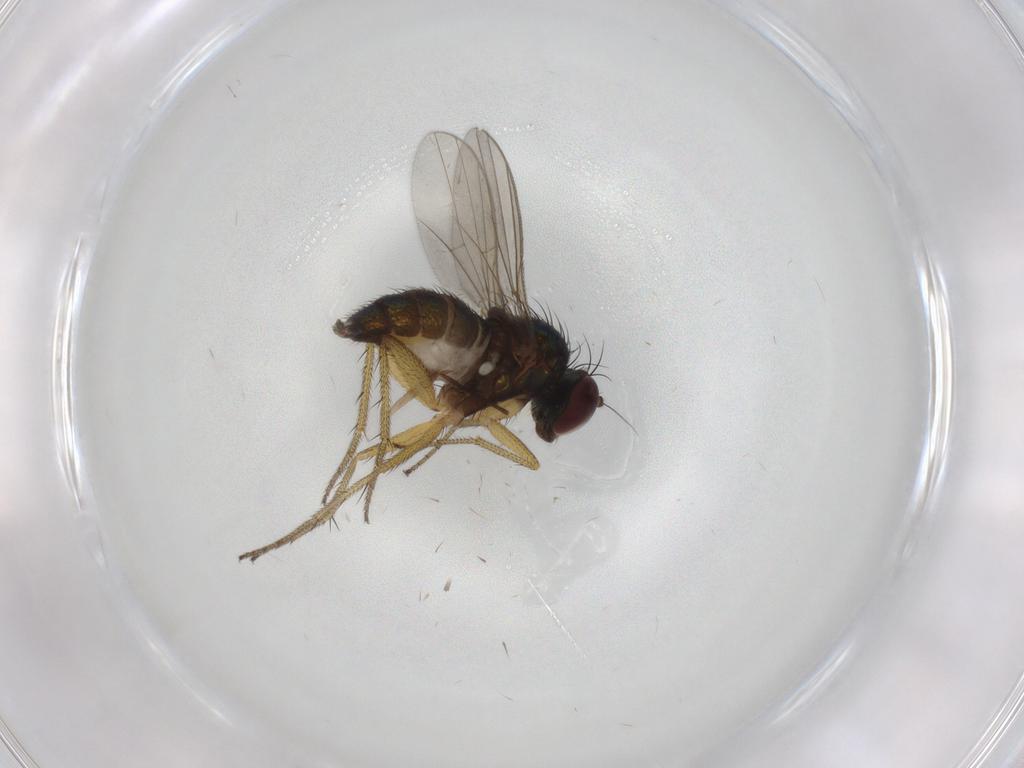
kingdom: Animalia
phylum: Arthropoda
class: Insecta
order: Diptera
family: Dolichopodidae
